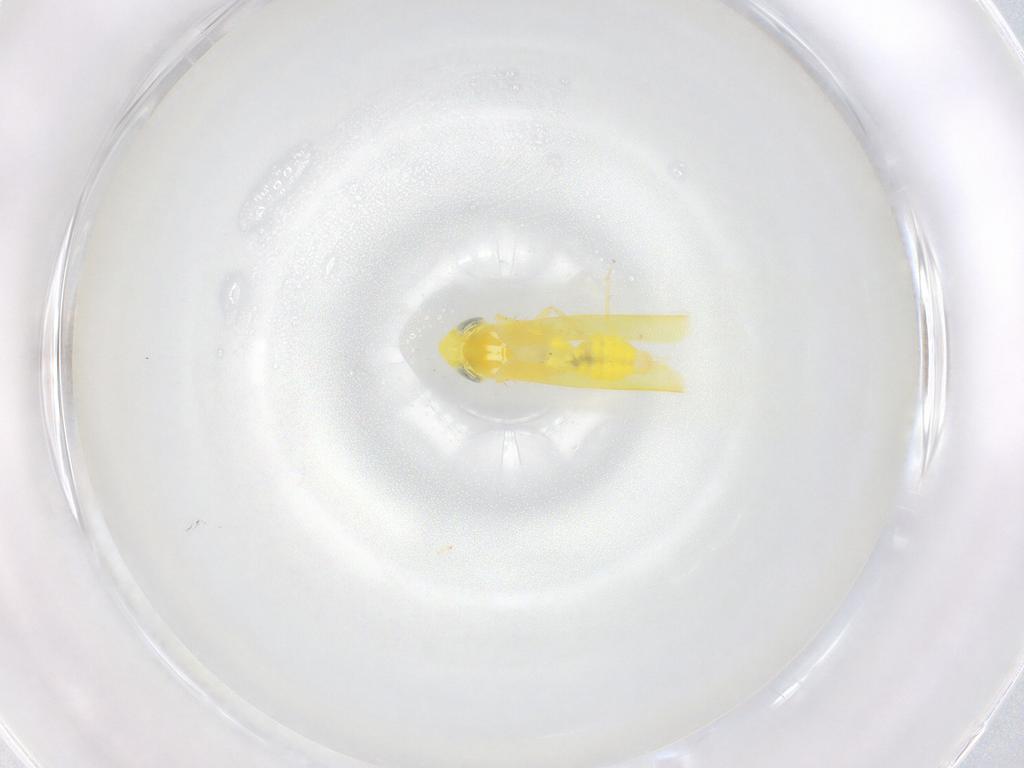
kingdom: Animalia
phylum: Arthropoda
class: Insecta
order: Hemiptera
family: Cicadellidae
